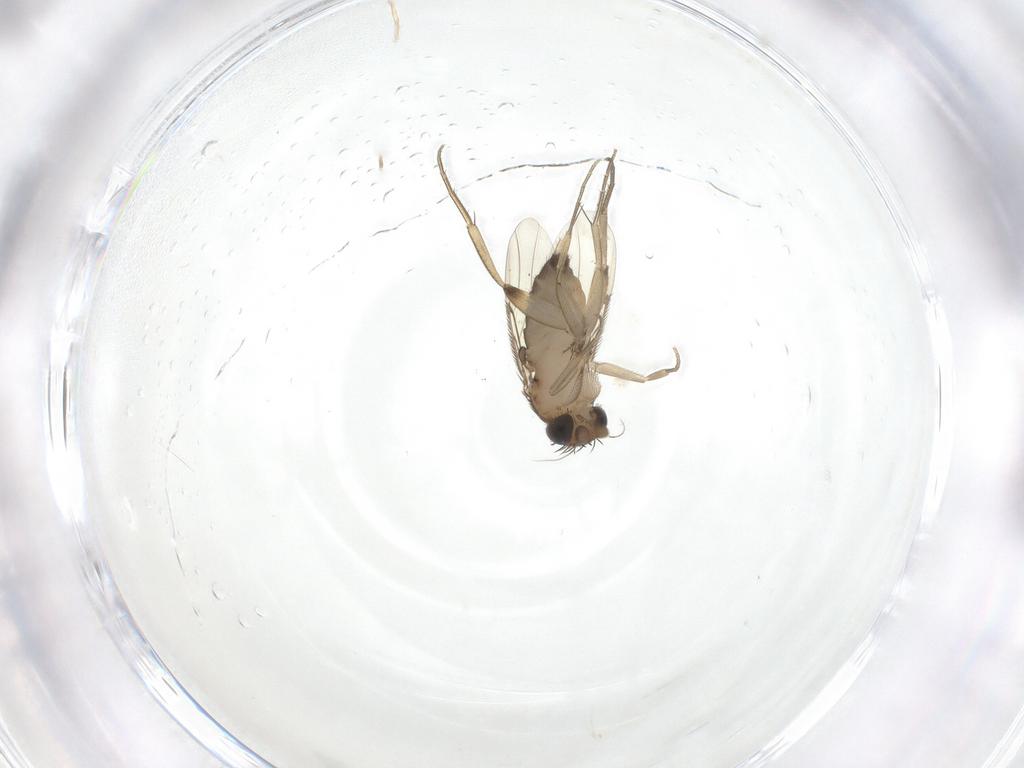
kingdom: Animalia
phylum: Arthropoda
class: Insecta
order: Diptera
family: Phoridae
